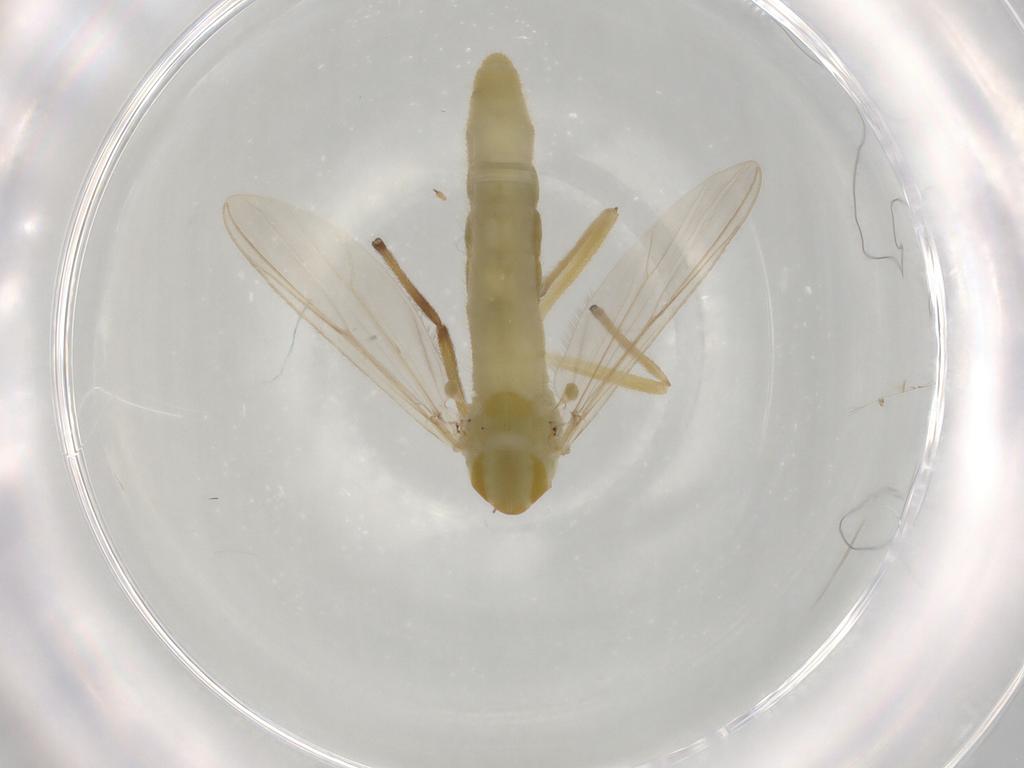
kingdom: Animalia
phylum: Arthropoda
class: Insecta
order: Diptera
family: Chironomidae
